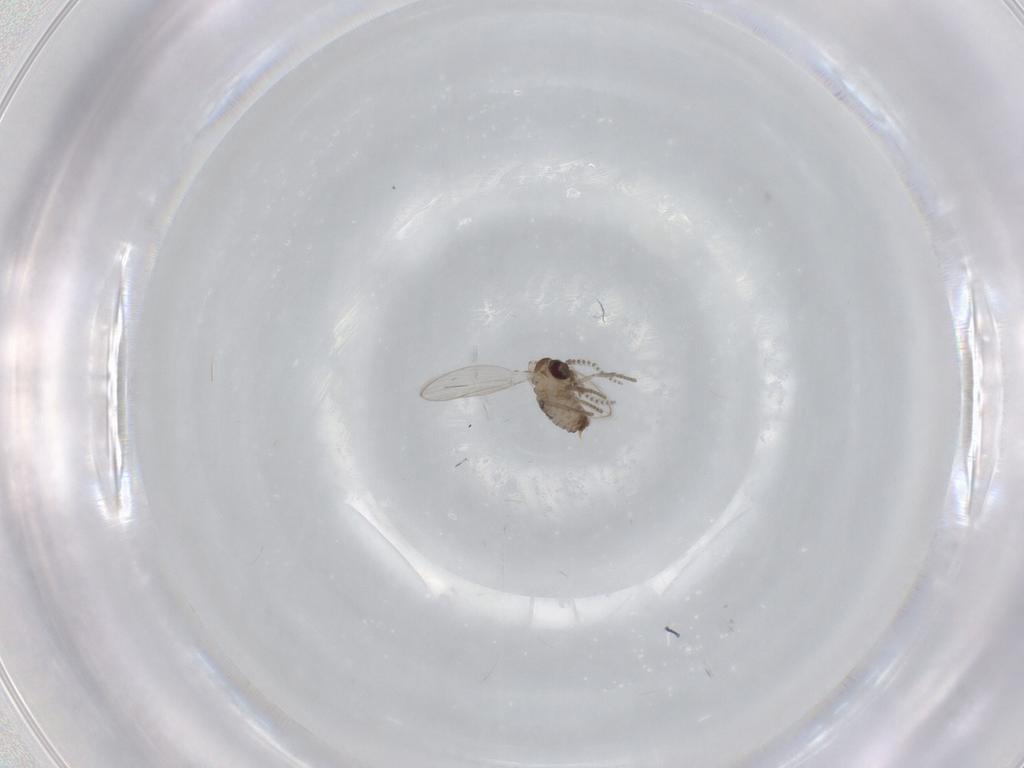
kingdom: Animalia
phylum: Arthropoda
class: Insecta
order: Diptera
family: Psychodidae
